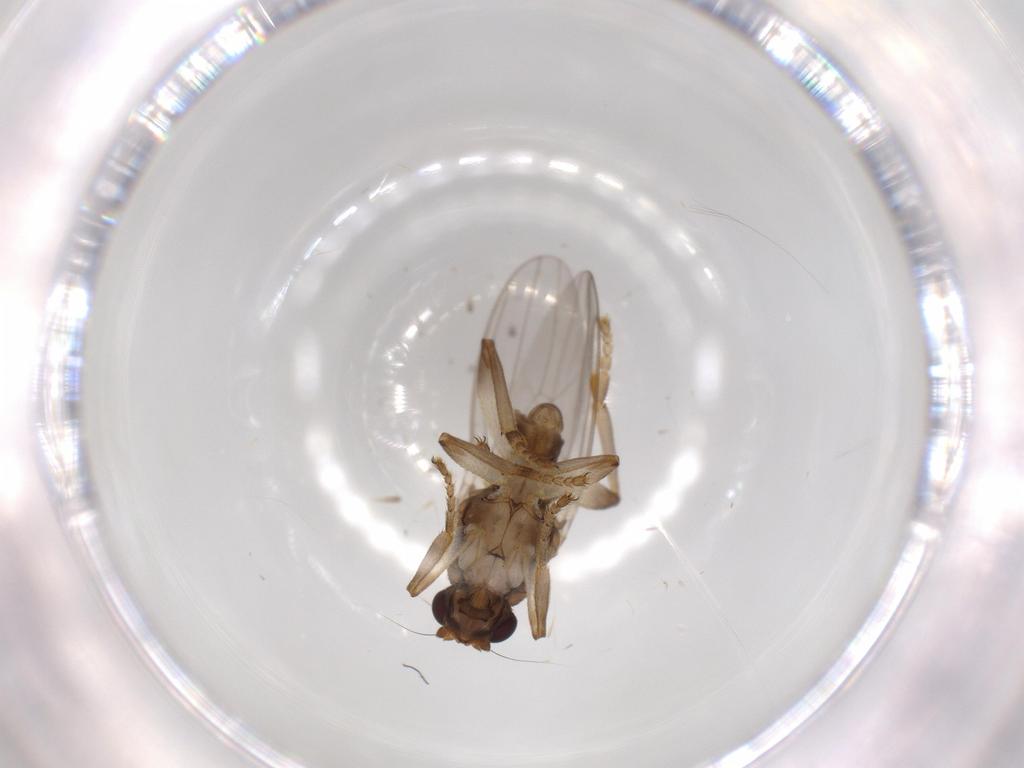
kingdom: Animalia
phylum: Arthropoda
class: Insecta
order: Diptera
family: Sphaeroceridae
